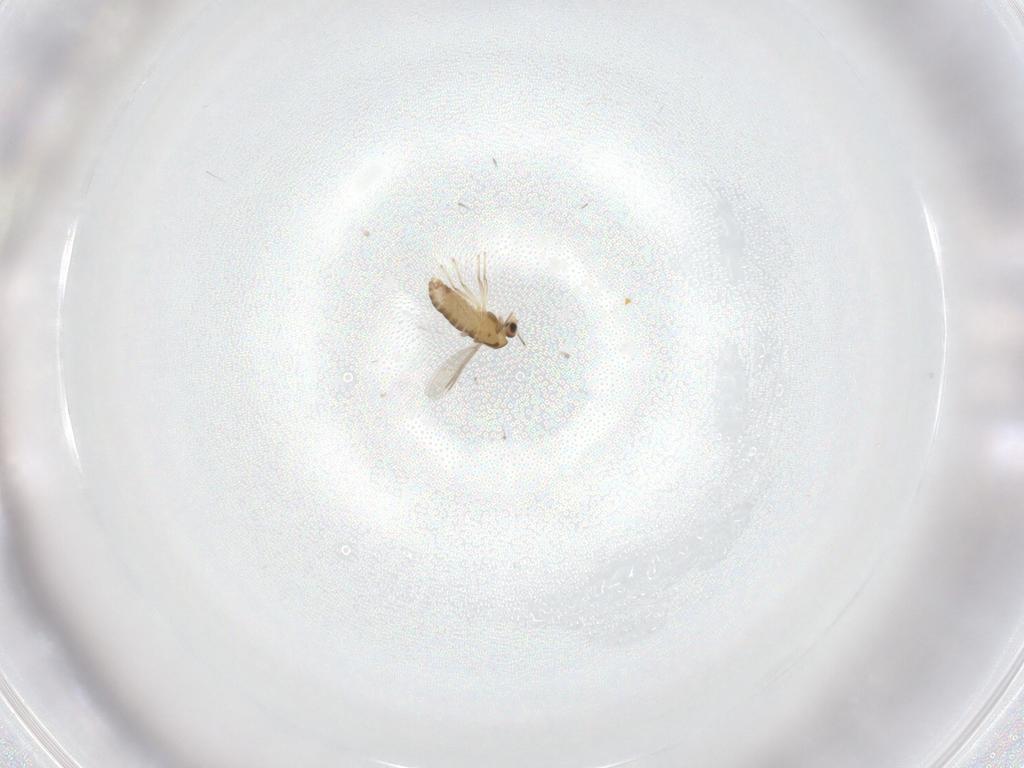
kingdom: Animalia
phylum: Arthropoda
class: Insecta
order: Diptera
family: Chironomidae
